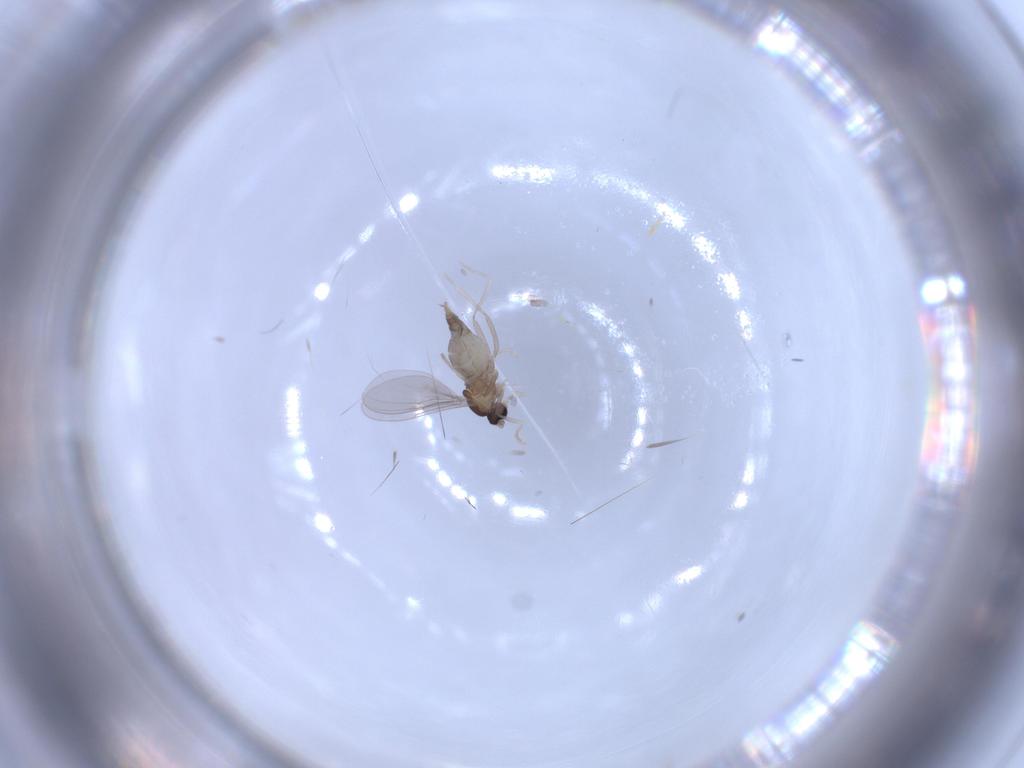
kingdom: Animalia
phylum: Arthropoda
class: Insecta
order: Diptera
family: Cecidomyiidae
